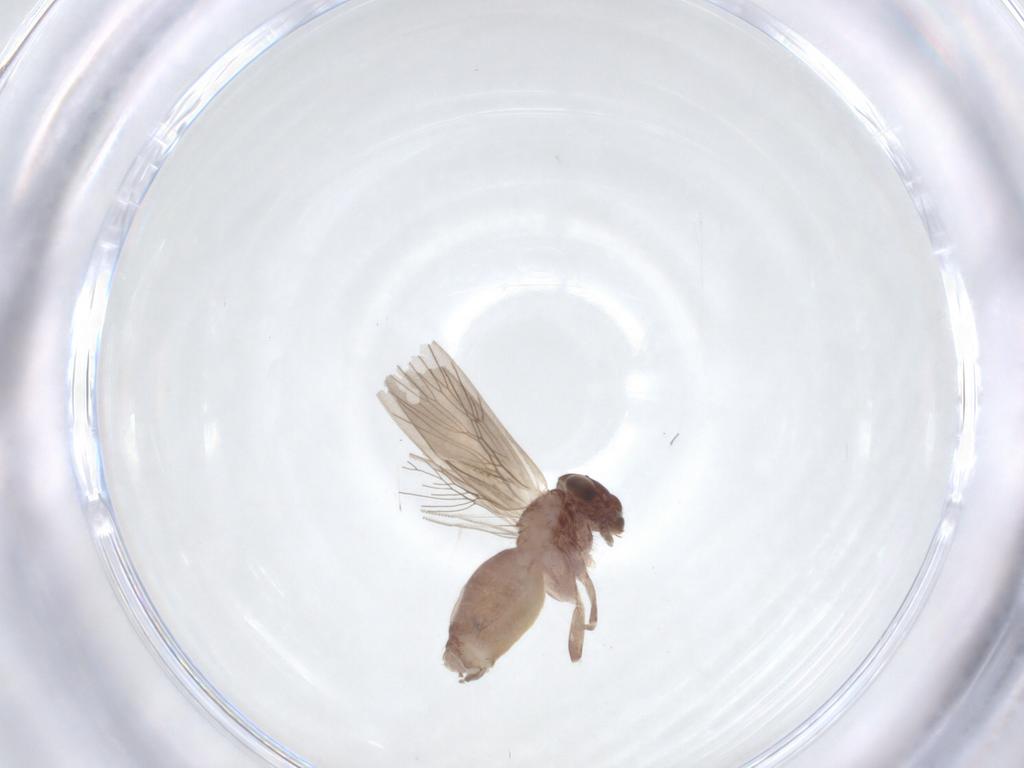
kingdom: Animalia
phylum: Arthropoda
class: Insecta
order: Psocodea
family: Lepidopsocidae
